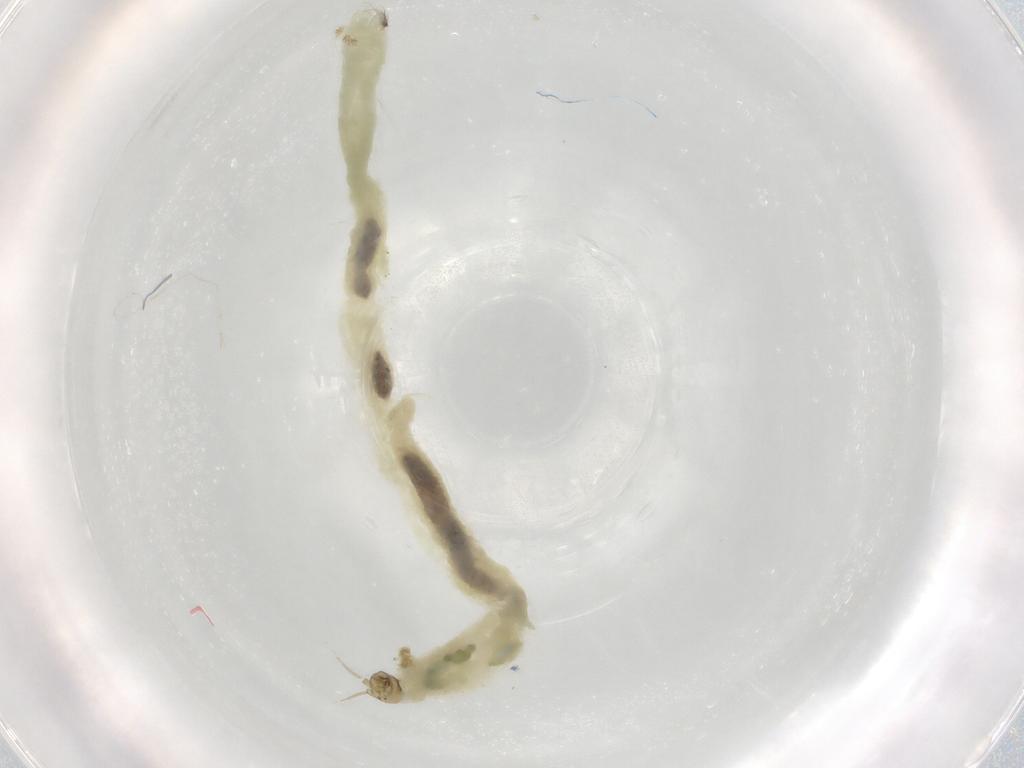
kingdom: Animalia
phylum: Arthropoda
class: Insecta
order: Diptera
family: Chironomidae
